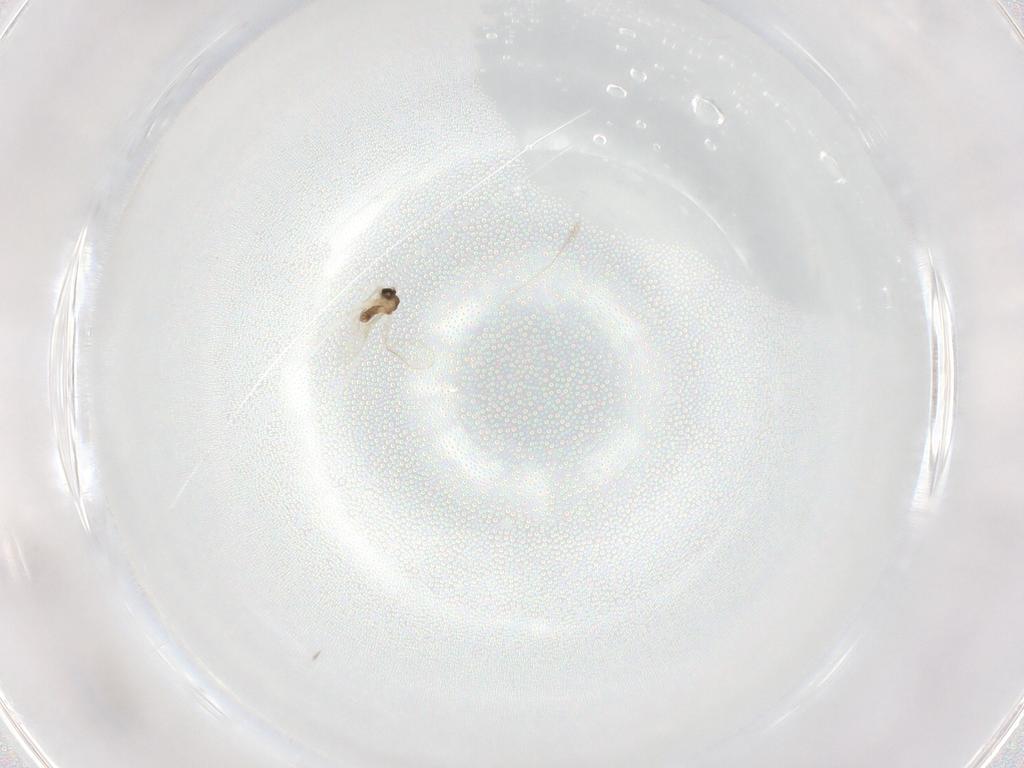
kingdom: Animalia
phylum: Arthropoda
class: Insecta
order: Diptera
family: Cecidomyiidae
